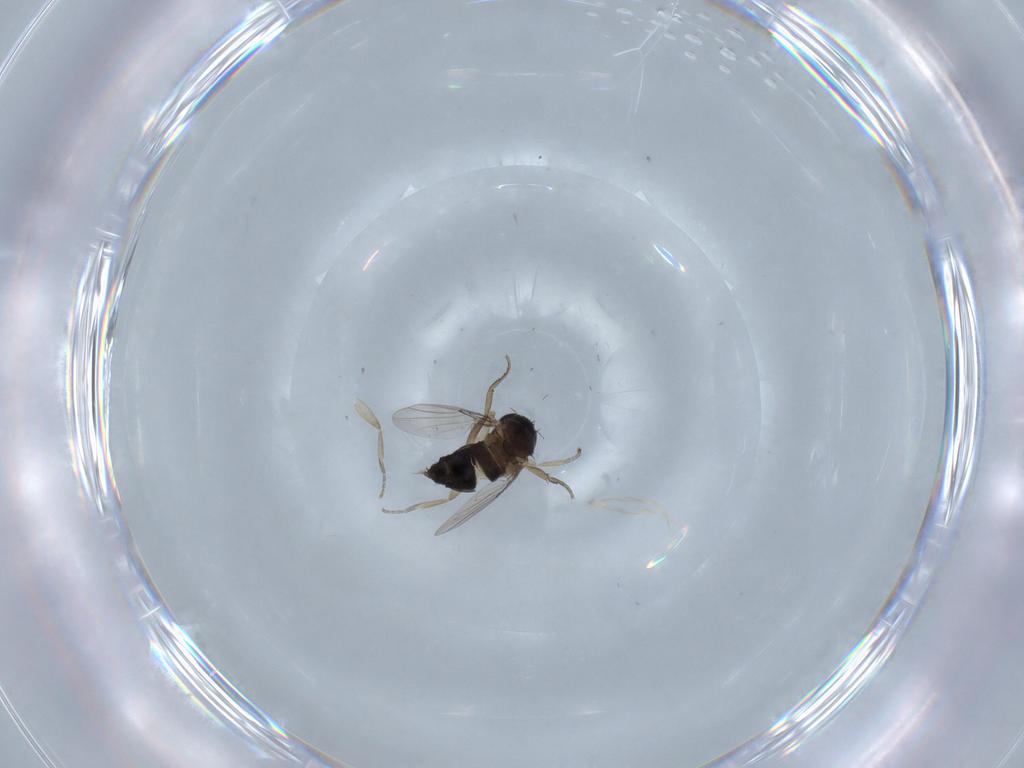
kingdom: Animalia
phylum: Arthropoda
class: Insecta
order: Diptera
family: Phoridae
